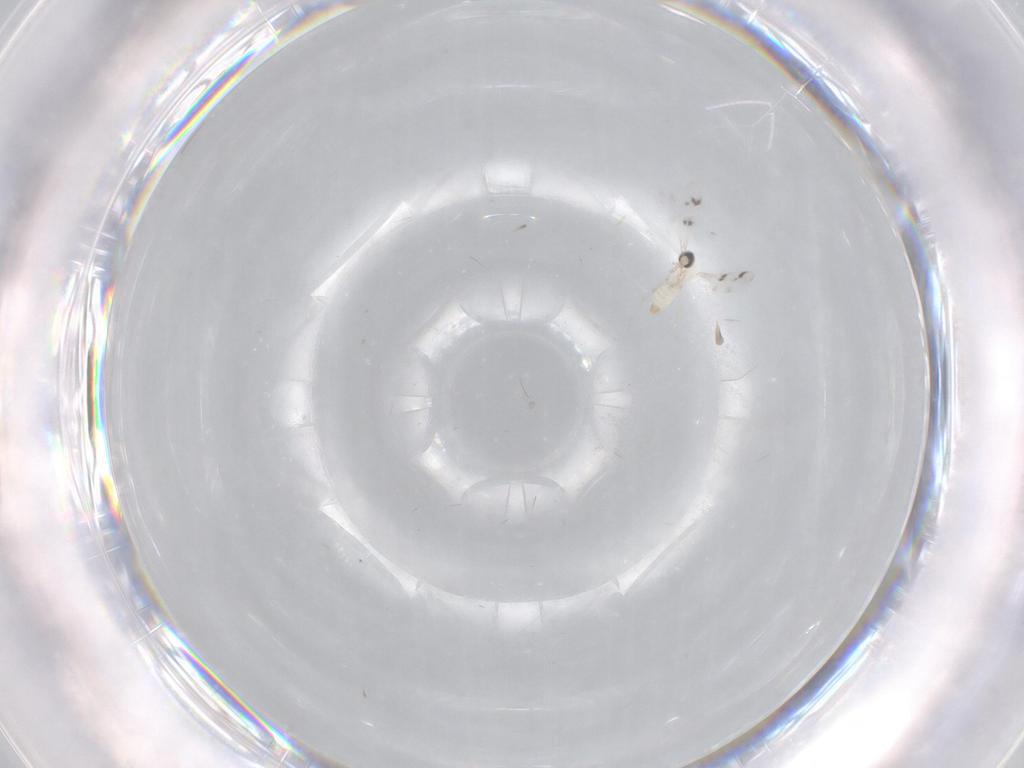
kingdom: Animalia
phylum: Arthropoda
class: Insecta
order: Diptera
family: Cecidomyiidae
